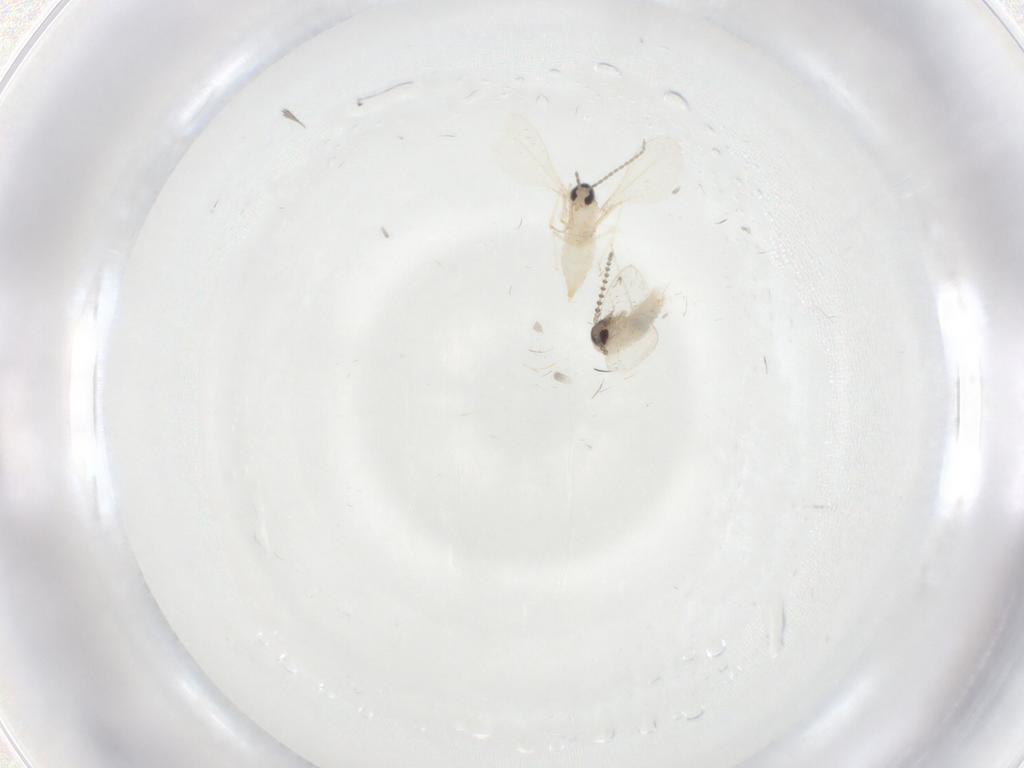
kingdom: Animalia
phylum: Arthropoda
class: Insecta
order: Diptera
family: Psychodidae
